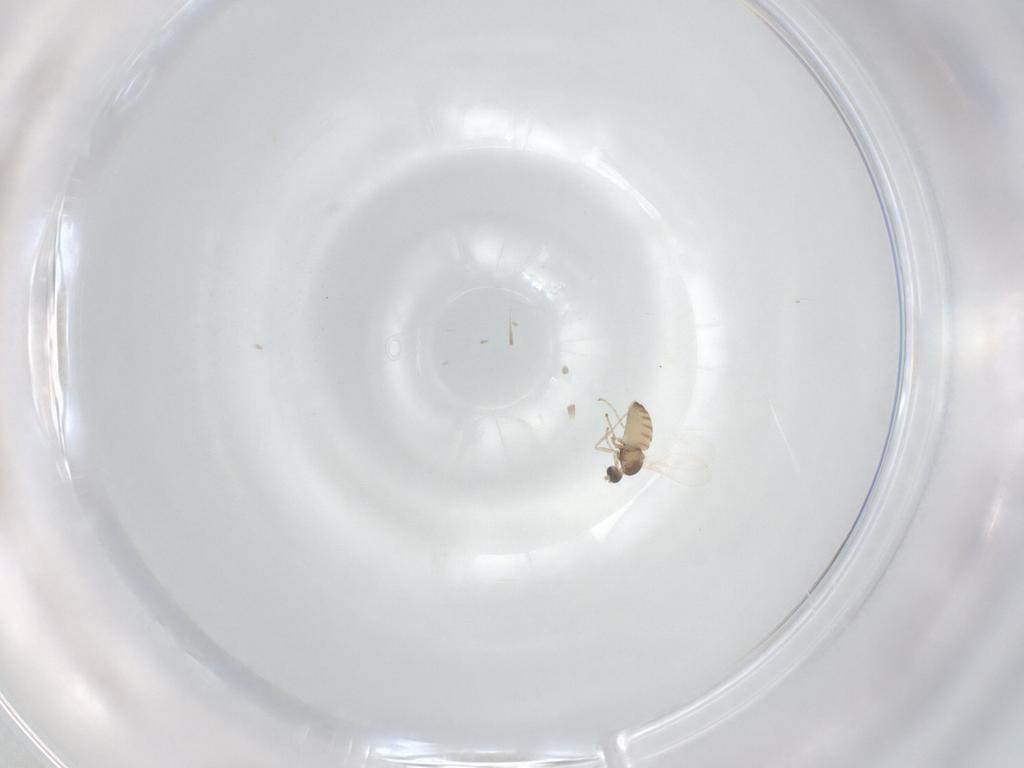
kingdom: Animalia
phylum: Arthropoda
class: Insecta
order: Diptera
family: Cecidomyiidae
